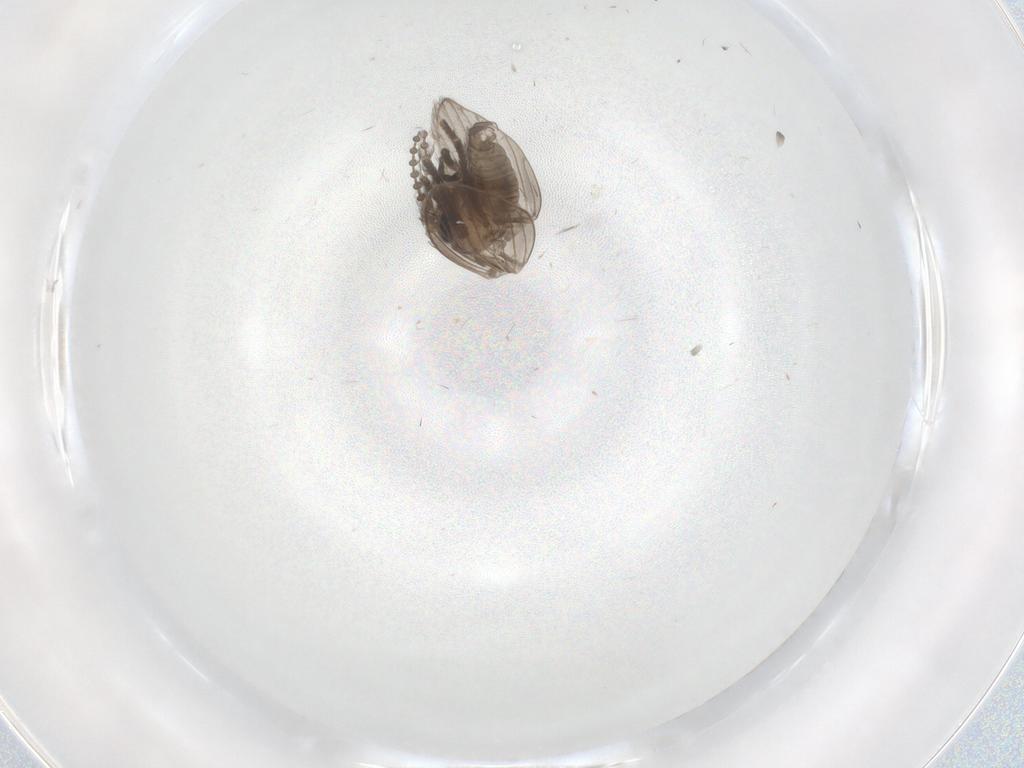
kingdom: Animalia
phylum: Arthropoda
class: Insecta
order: Diptera
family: Psychodidae
